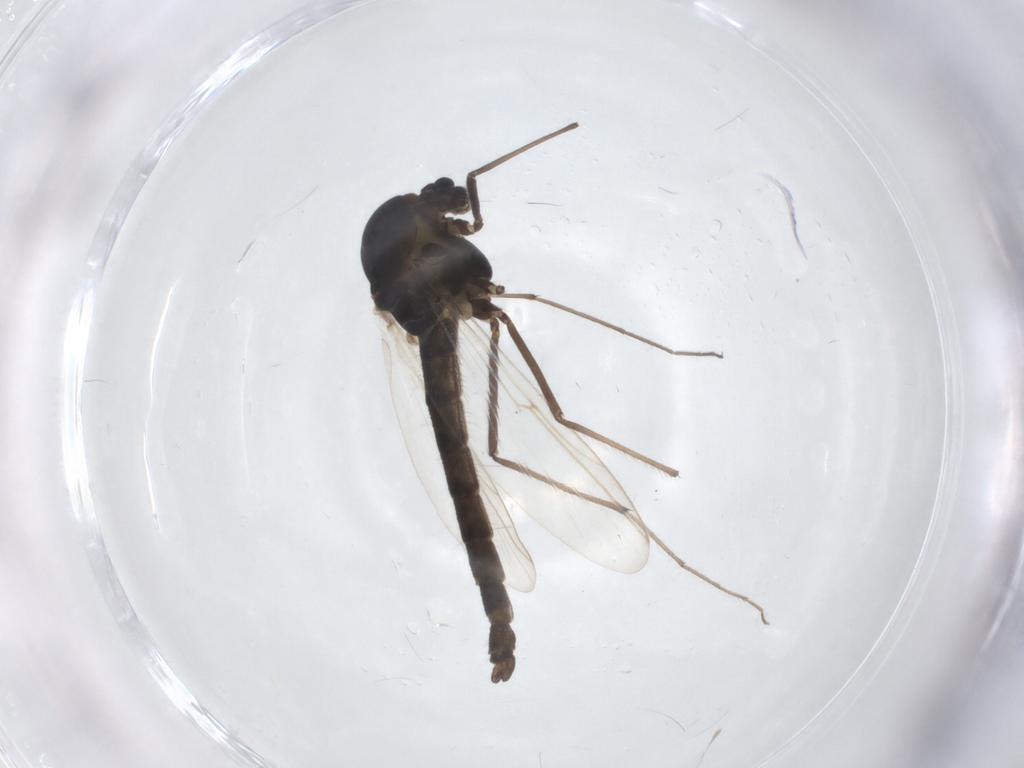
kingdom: Animalia
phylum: Arthropoda
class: Insecta
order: Diptera
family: Chironomidae
